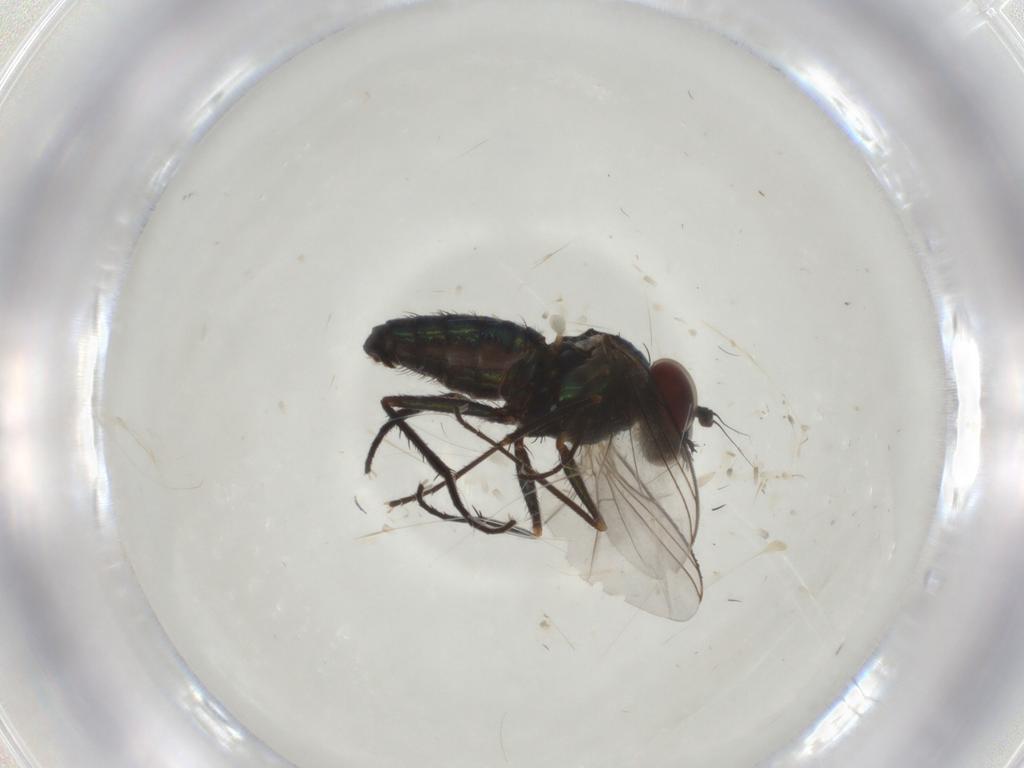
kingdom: Animalia
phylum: Arthropoda
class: Insecta
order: Diptera
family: Dolichopodidae
